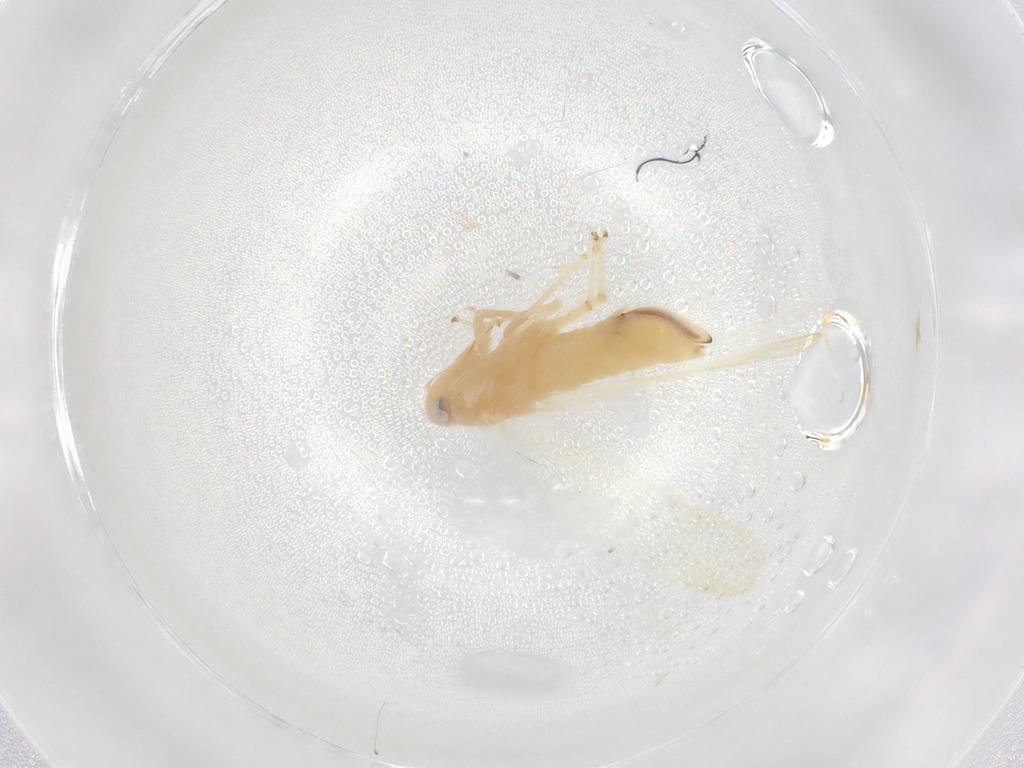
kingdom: Animalia
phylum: Arthropoda
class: Insecta
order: Hemiptera
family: Cicadellidae
